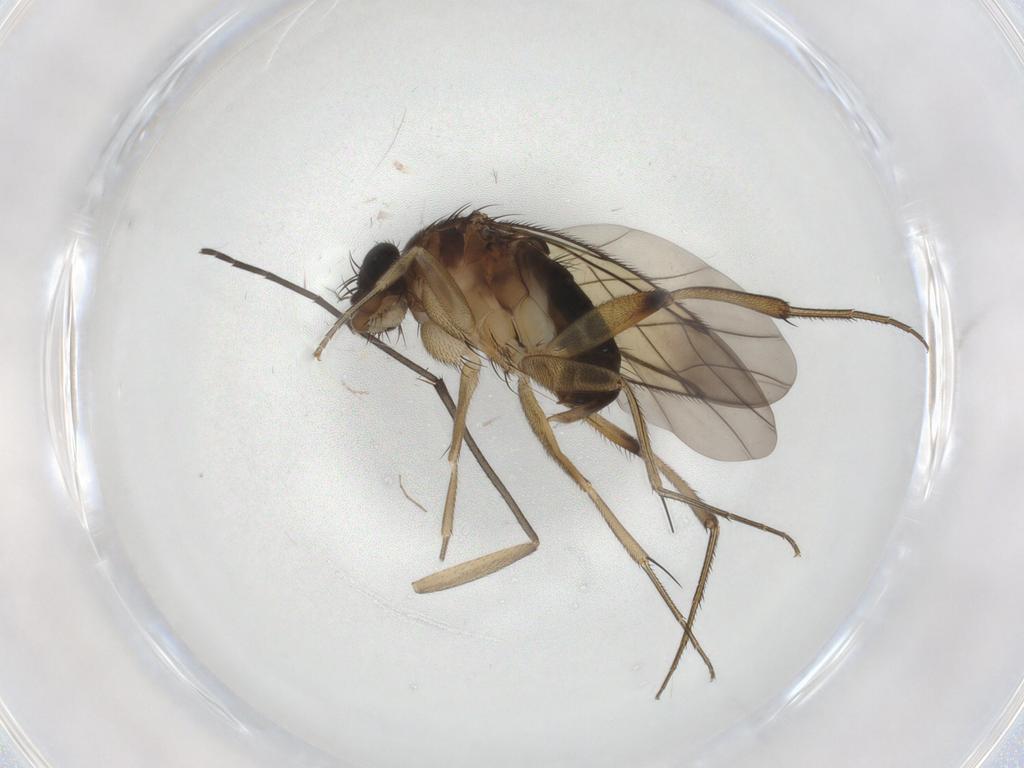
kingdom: Animalia
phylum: Arthropoda
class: Insecta
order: Diptera
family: Phoridae
